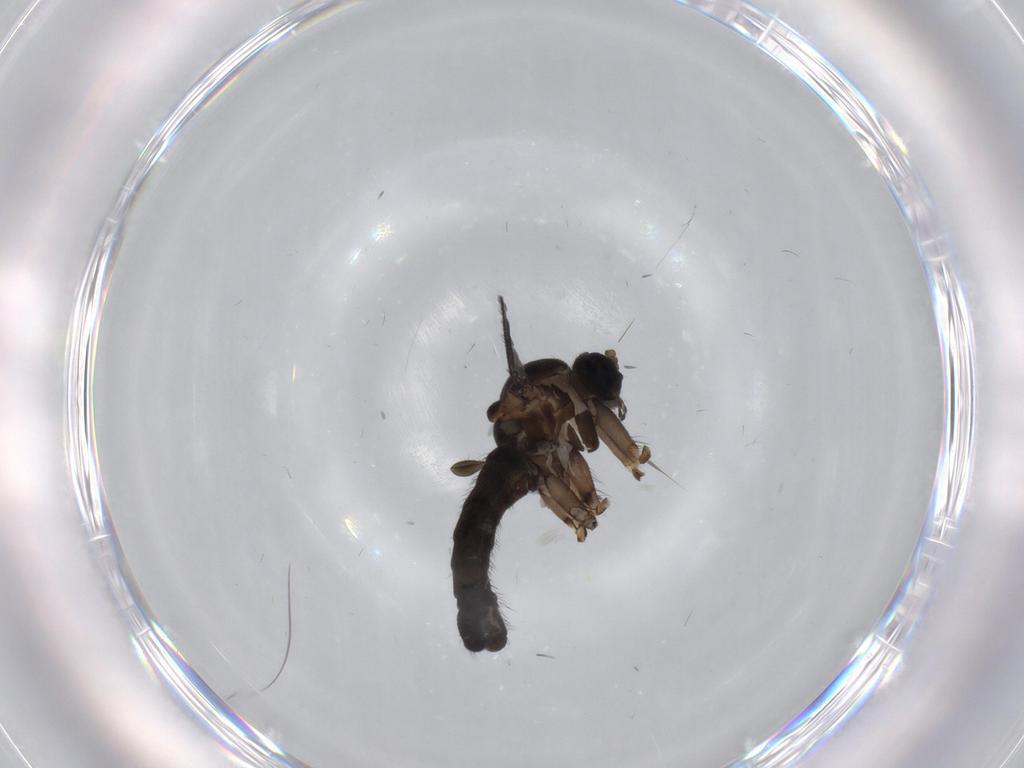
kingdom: Animalia
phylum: Arthropoda
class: Insecta
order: Diptera
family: Sciaridae
